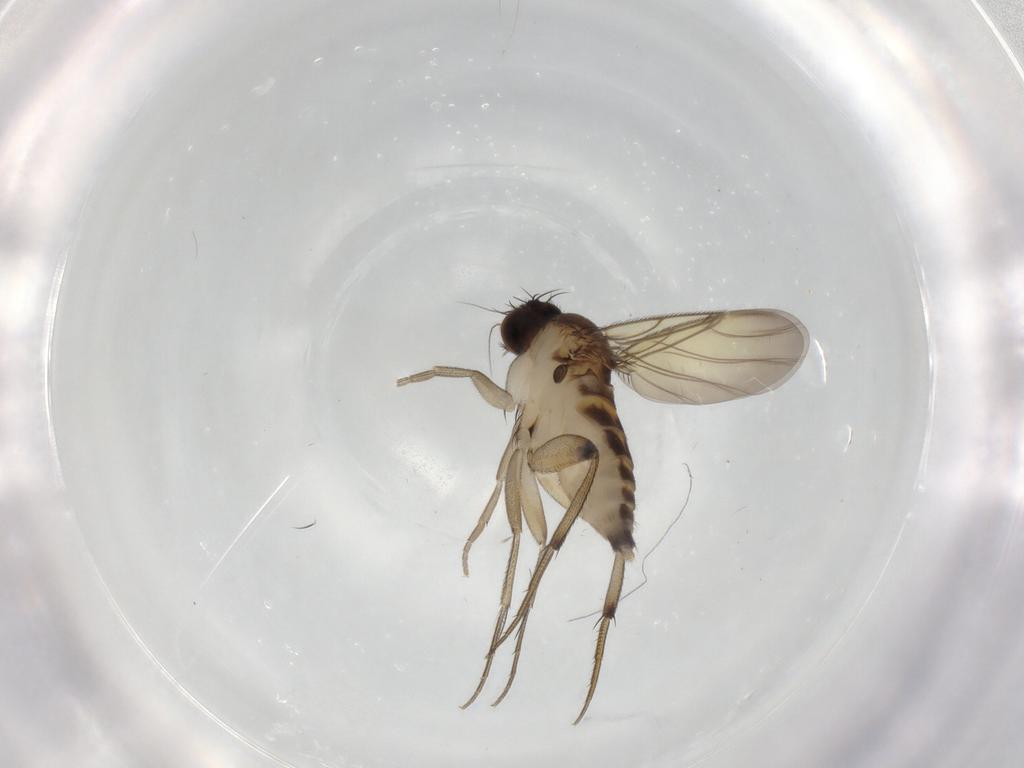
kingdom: Animalia
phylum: Arthropoda
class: Insecta
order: Diptera
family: Phoridae
